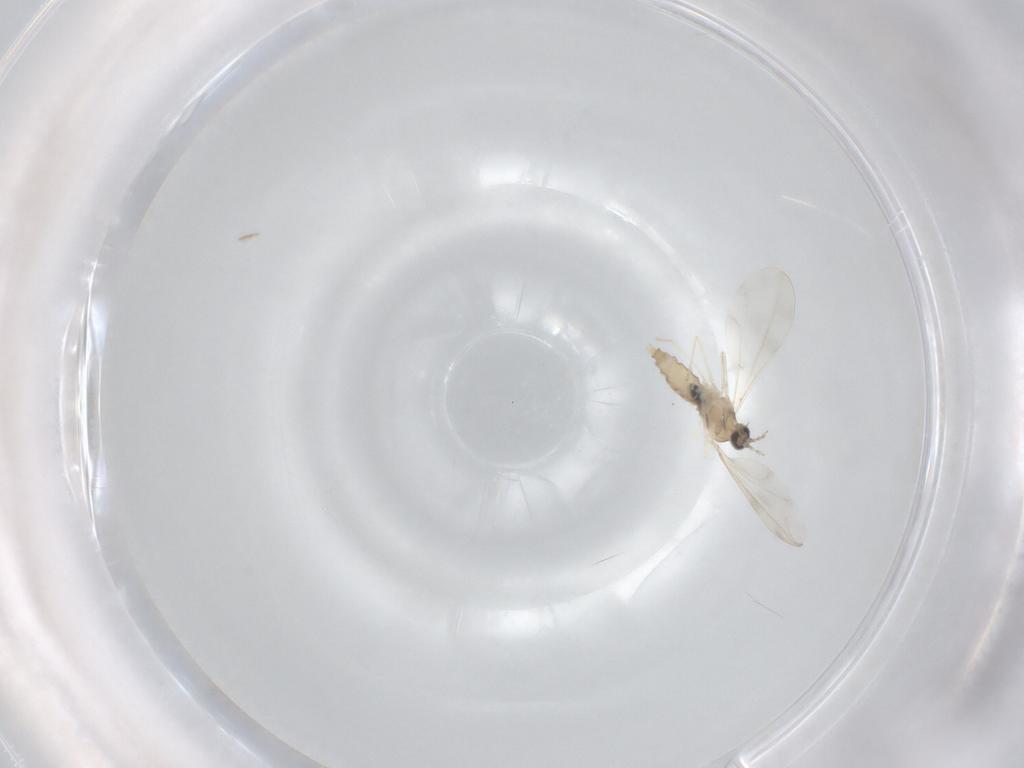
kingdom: Animalia
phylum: Arthropoda
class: Insecta
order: Diptera
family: Cecidomyiidae
